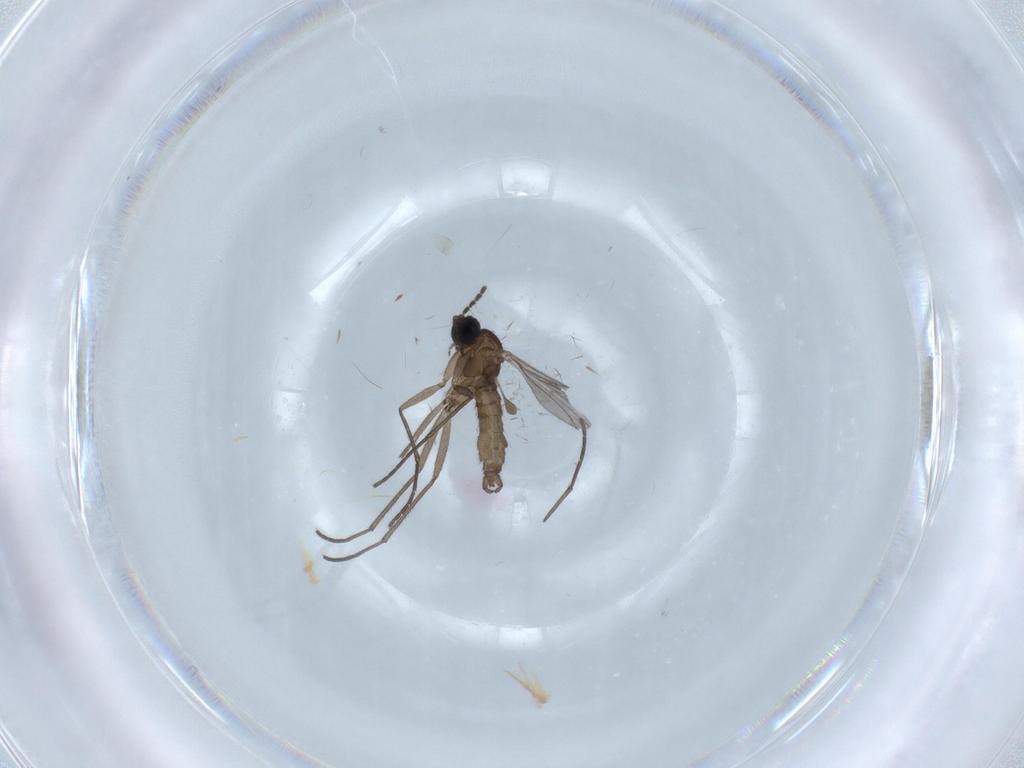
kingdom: Animalia
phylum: Arthropoda
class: Insecta
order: Diptera
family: Sciaridae
